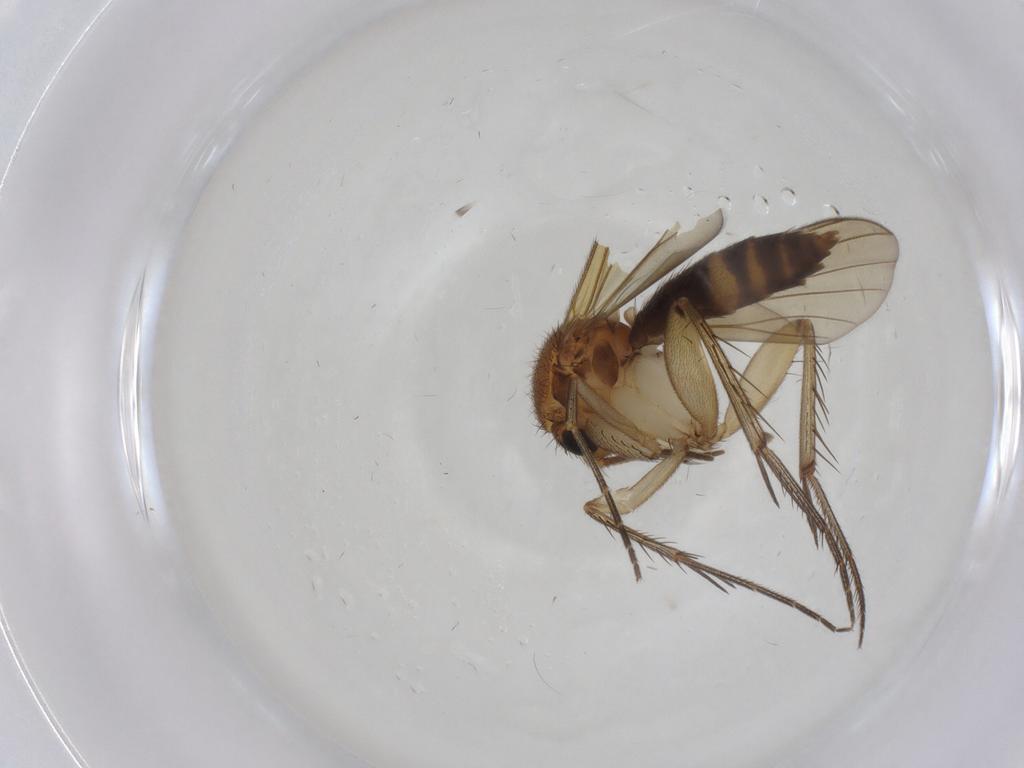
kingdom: Animalia
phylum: Arthropoda
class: Insecta
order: Diptera
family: Mycetophilidae
